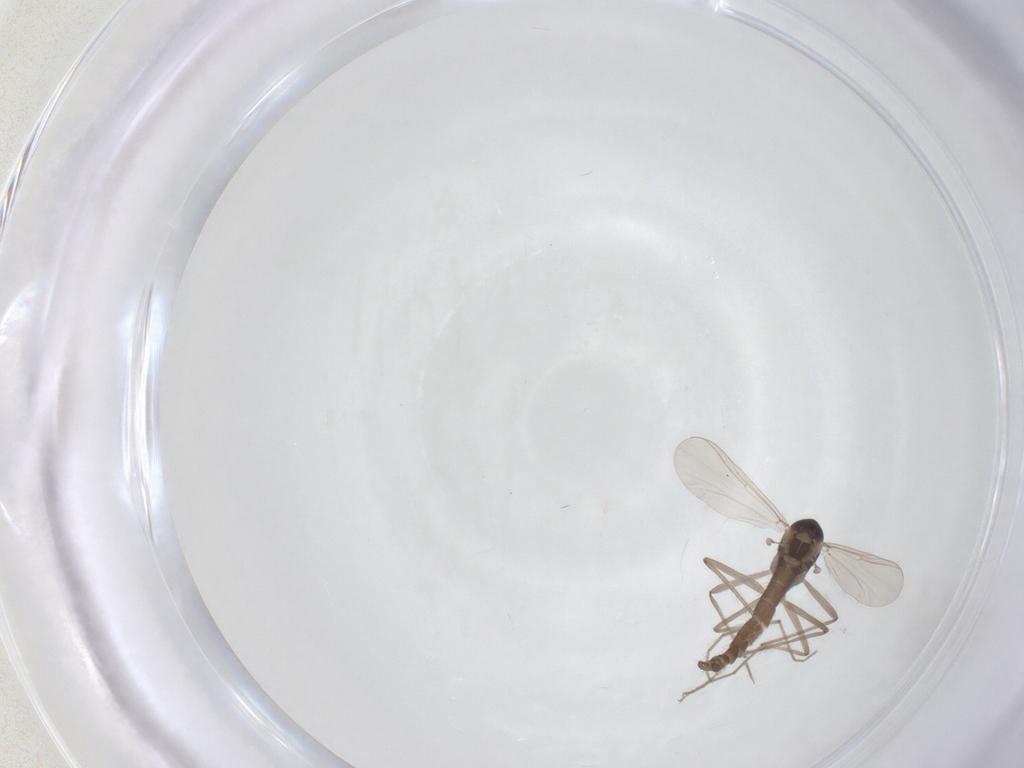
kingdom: Animalia
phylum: Arthropoda
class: Insecta
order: Diptera
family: Chironomidae
